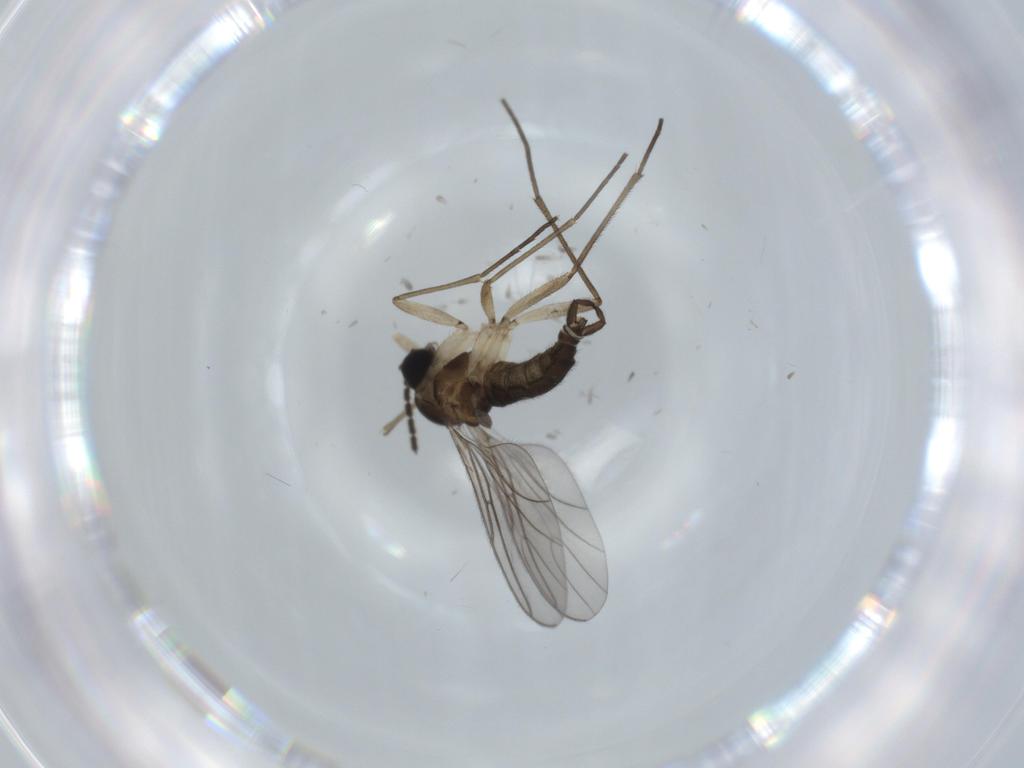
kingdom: Animalia
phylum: Arthropoda
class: Insecta
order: Diptera
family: Sciaridae
